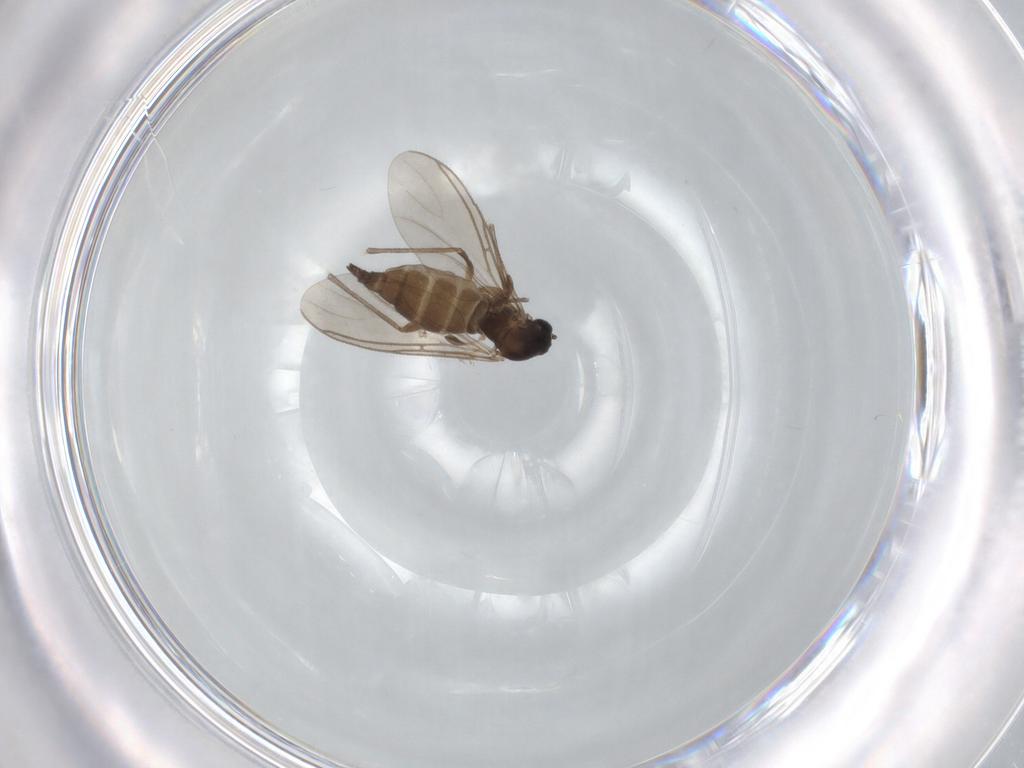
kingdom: Animalia
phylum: Arthropoda
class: Insecta
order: Diptera
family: Sciaridae
